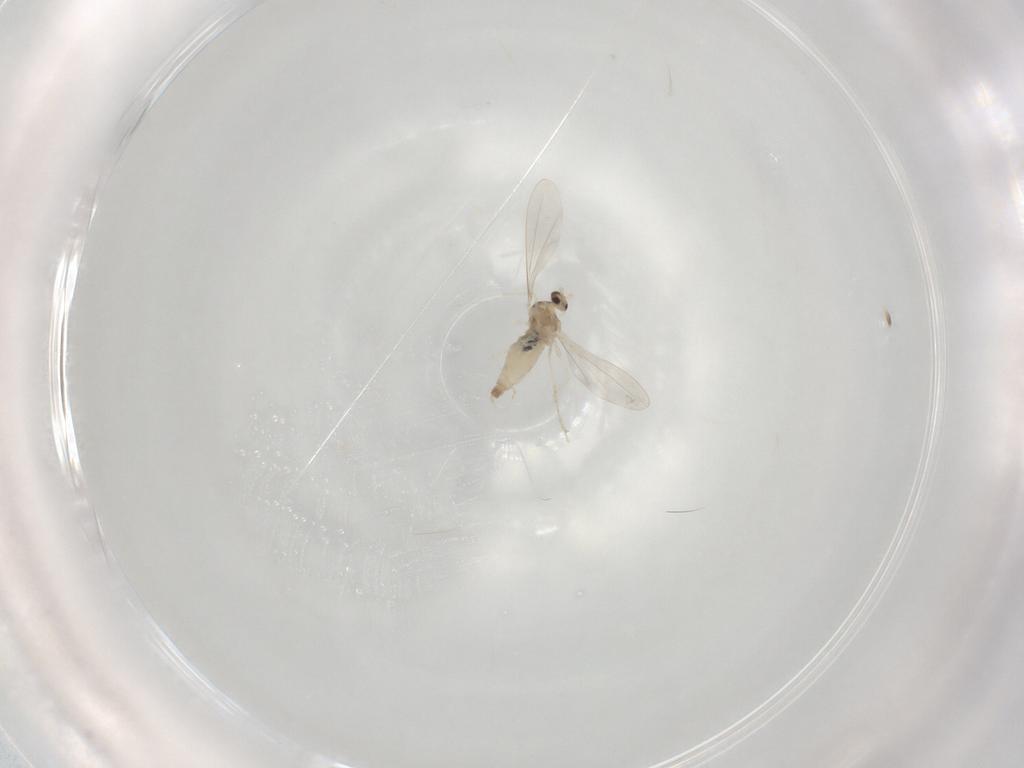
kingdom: Animalia
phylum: Arthropoda
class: Insecta
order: Diptera
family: Cecidomyiidae
